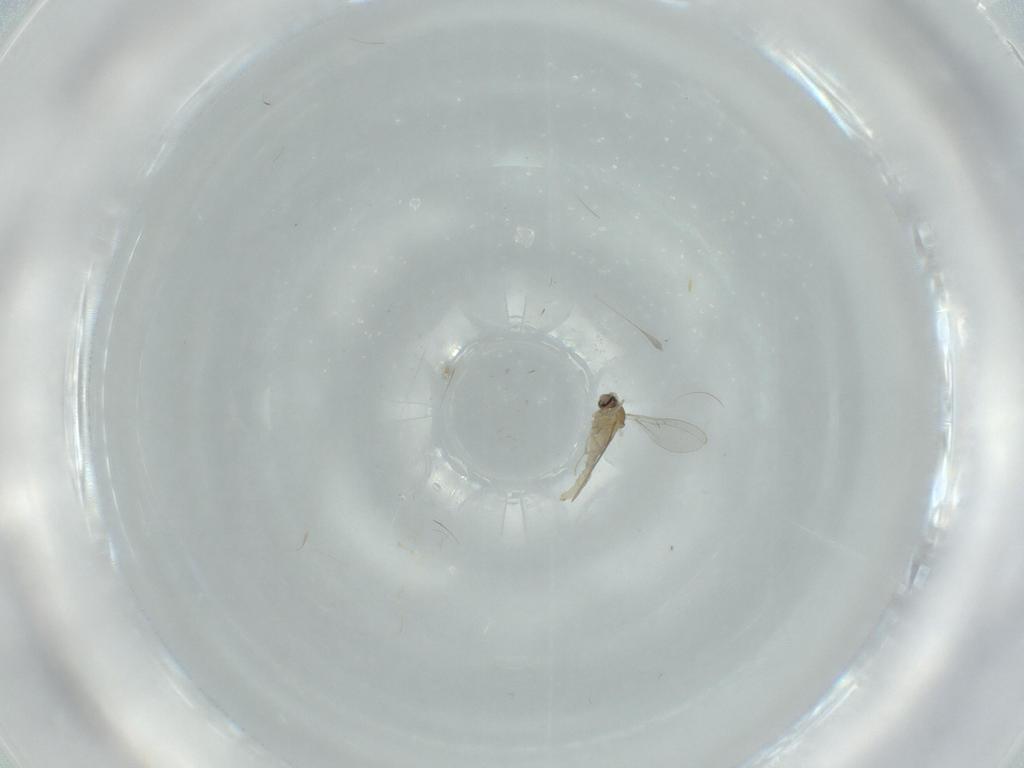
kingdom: Animalia
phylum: Arthropoda
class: Insecta
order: Diptera
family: Cecidomyiidae
